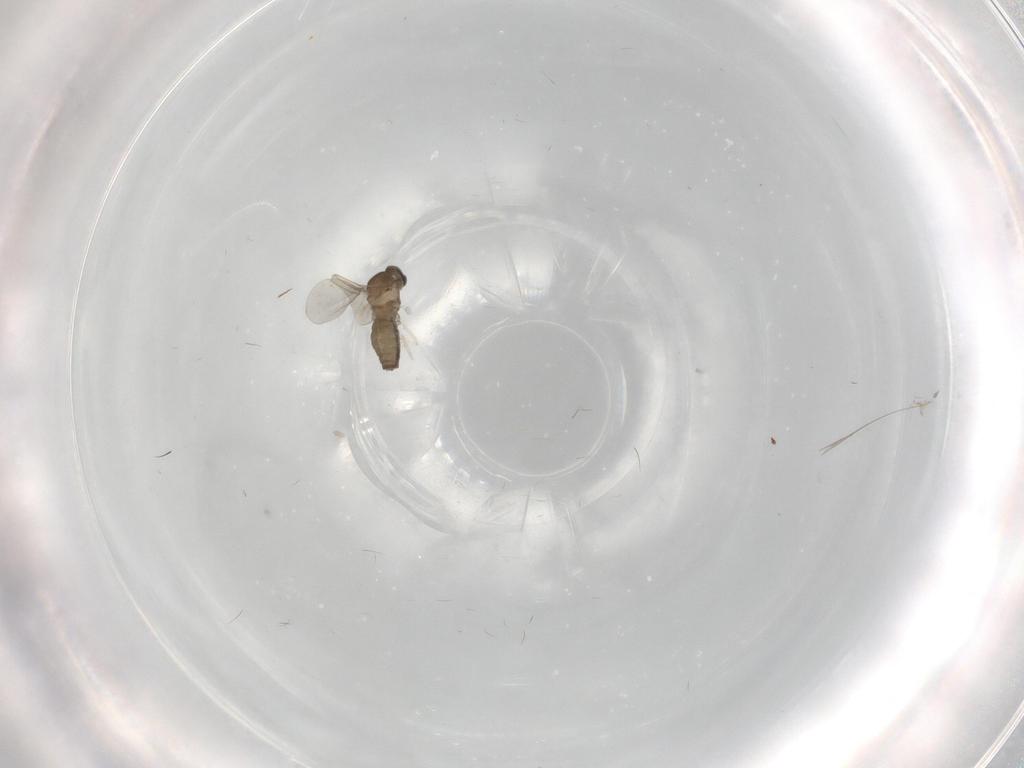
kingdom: Animalia
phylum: Arthropoda
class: Insecta
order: Diptera
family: Cecidomyiidae
